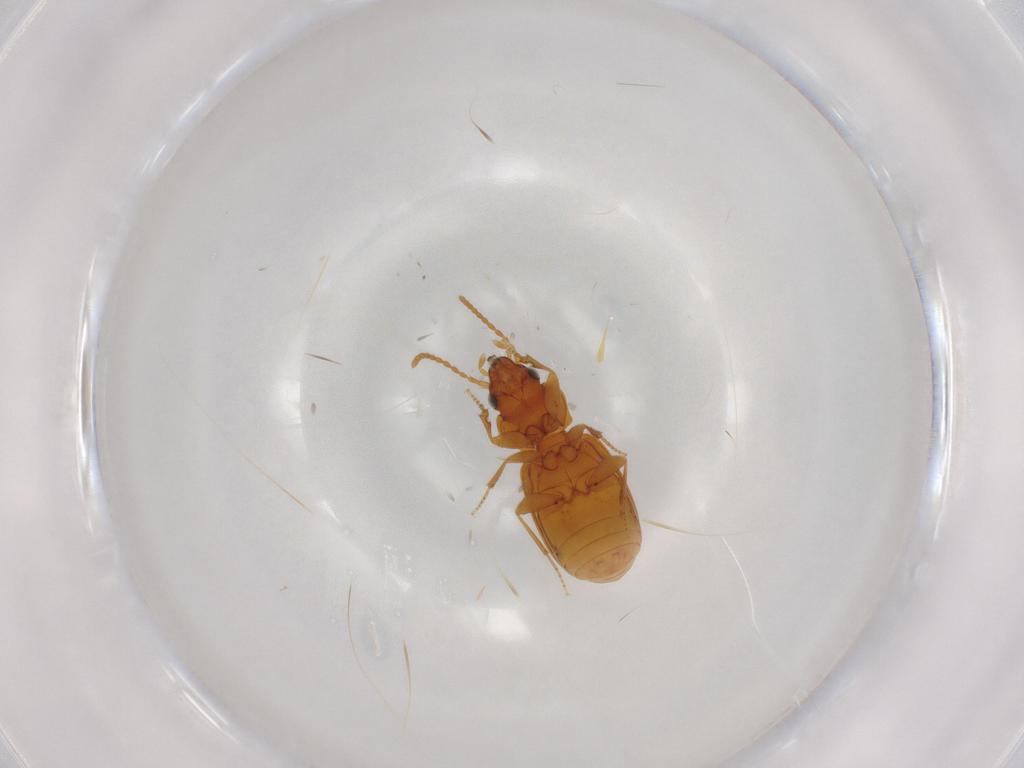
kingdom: Animalia
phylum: Arthropoda
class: Insecta
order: Coleoptera
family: Carabidae
